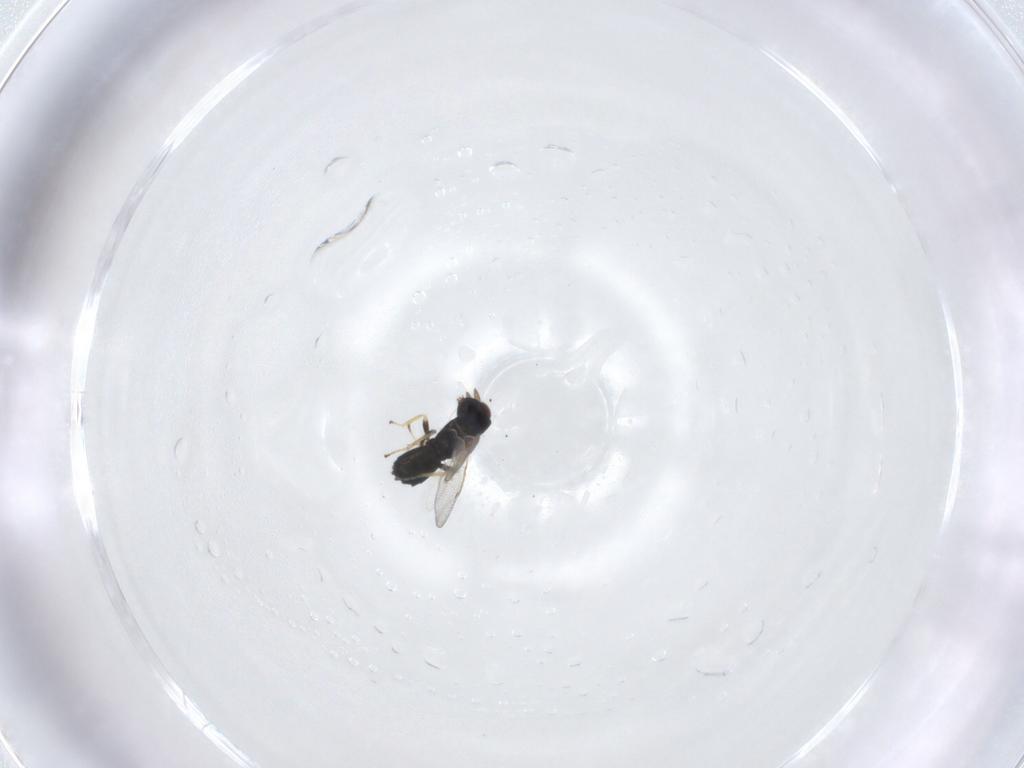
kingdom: Animalia
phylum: Arthropoda
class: Insecta
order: Hymenoptera
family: Eulophidae
